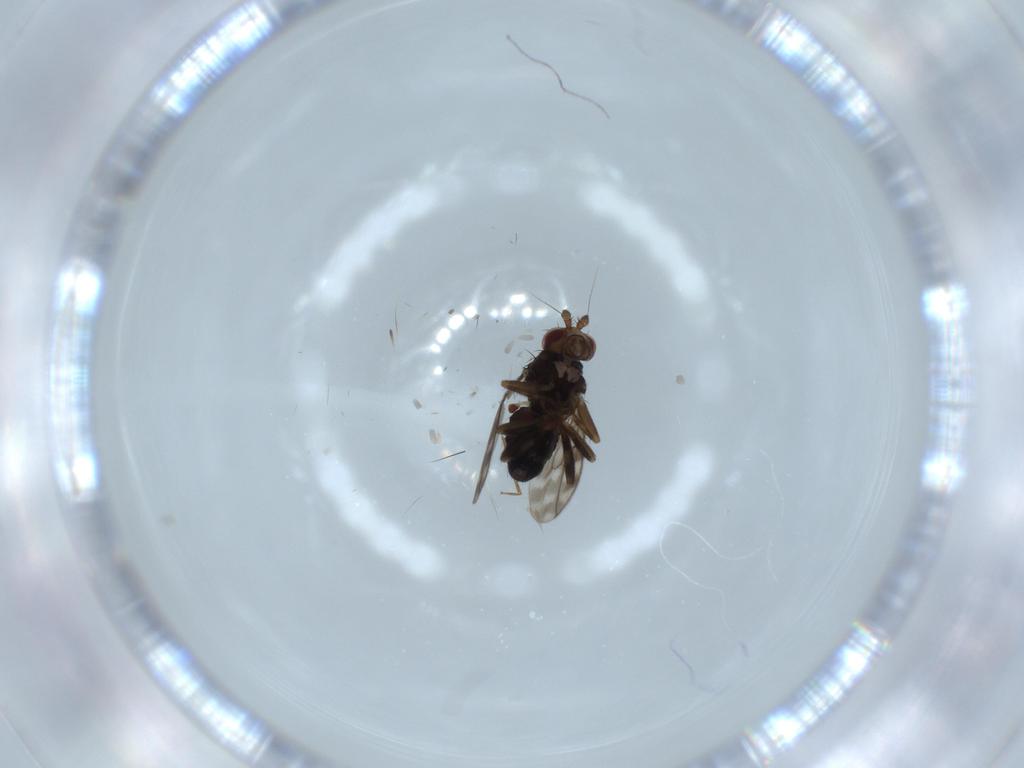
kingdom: Animalia
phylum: Arthropoda
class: Insecta
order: Diptera
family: Sphaeroceridae
